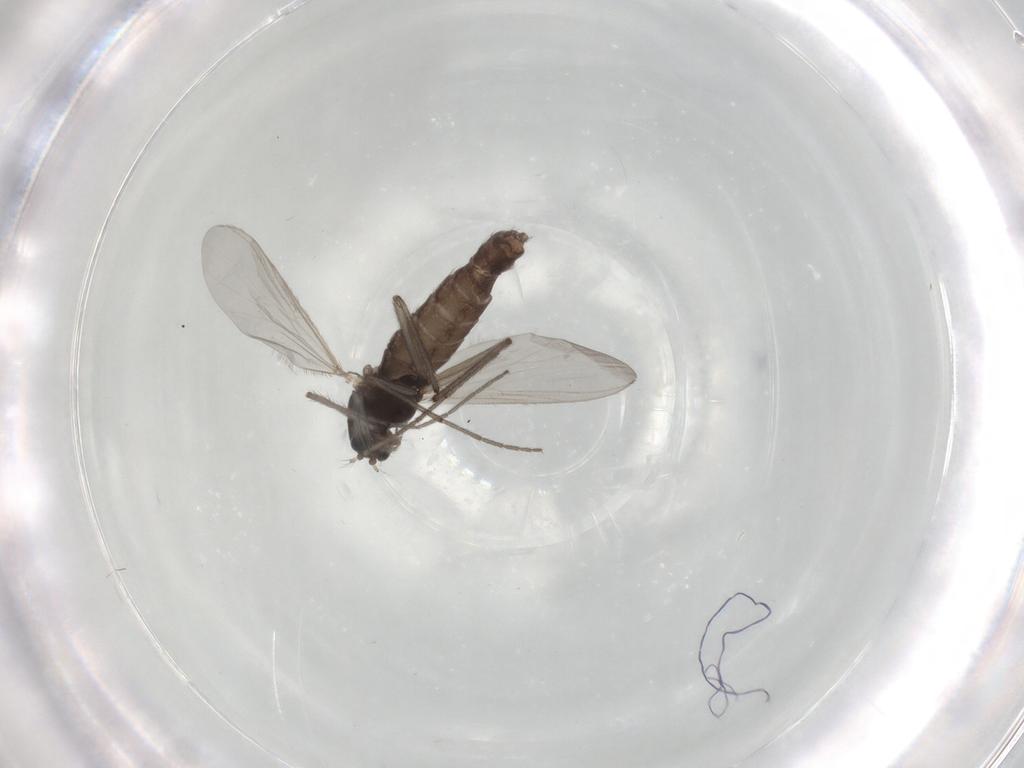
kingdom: Animalia
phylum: Arthropoda
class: Insecta
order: Diptera
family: Chironomidae
